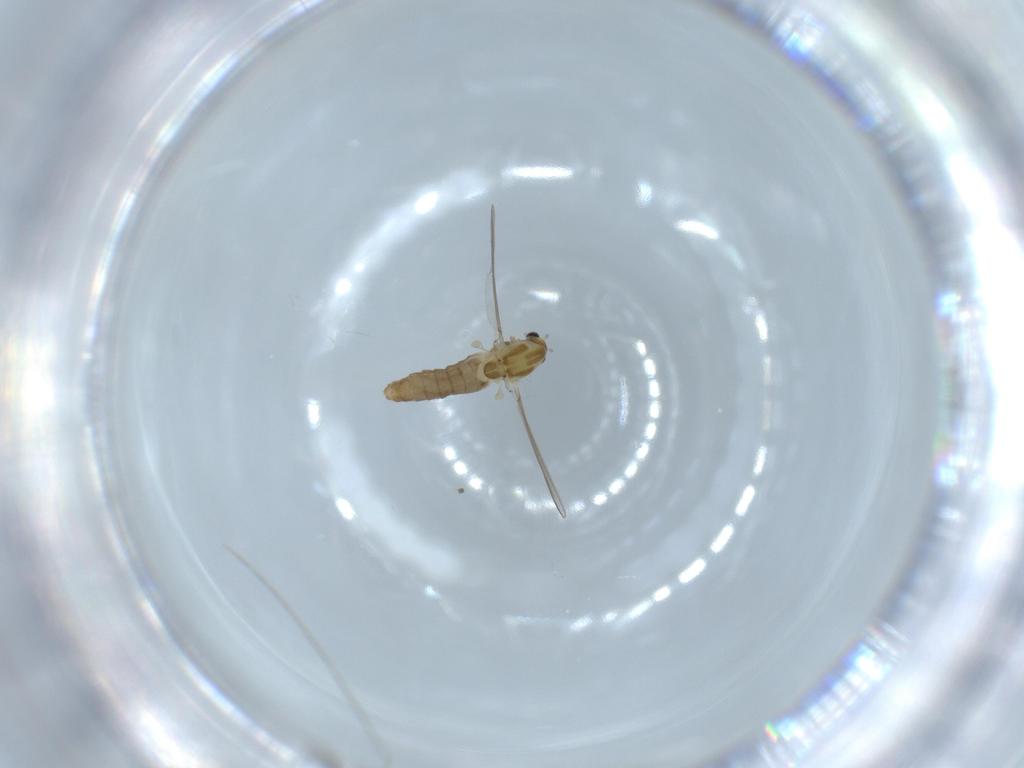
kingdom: Animalia
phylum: Arthropoda
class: Insecta
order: Diptera
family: Chironomidae
